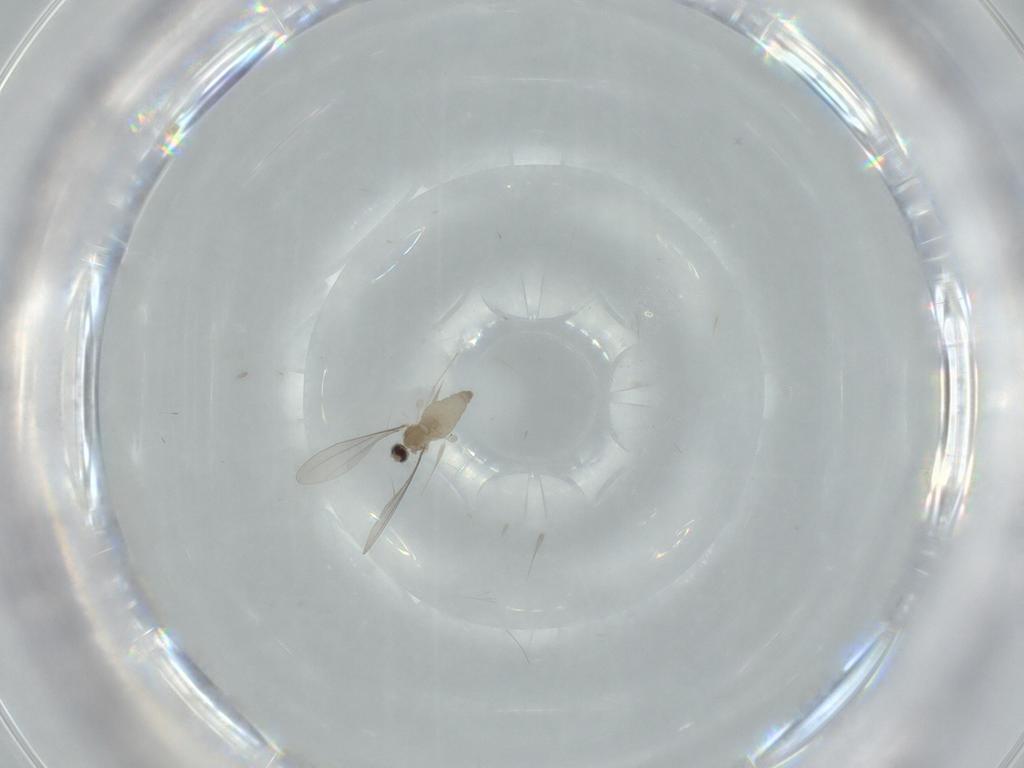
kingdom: Animalia
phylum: Arthropoda
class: Insecta
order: Diptera
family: Cecidomyiidae
